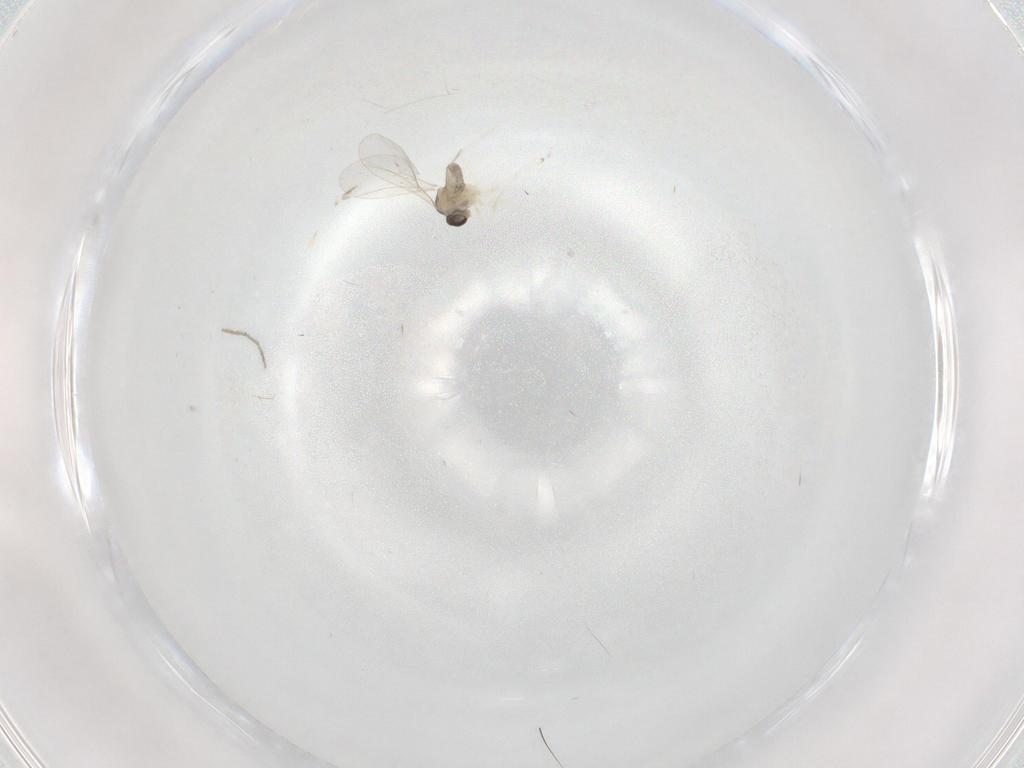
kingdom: Animalia
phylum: Arthropoda
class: Insecta
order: Diptera
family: Cecidomyiidae
